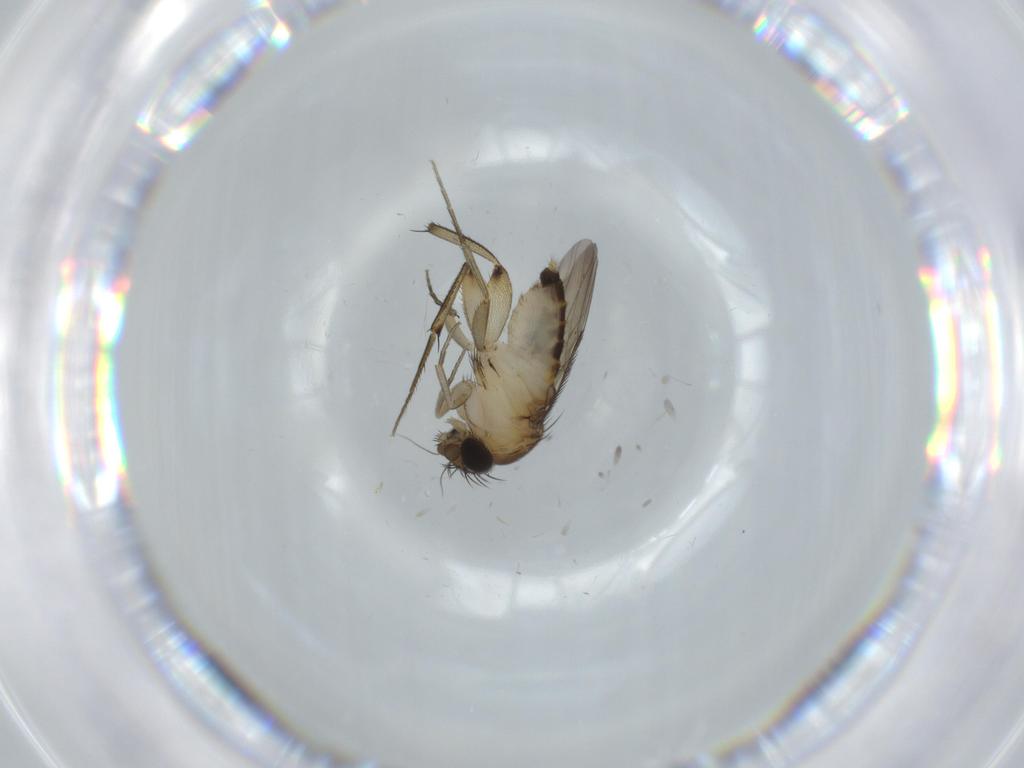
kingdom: Animalia
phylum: Arthropoda
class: Insecta
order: Diptera
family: Phoridae
